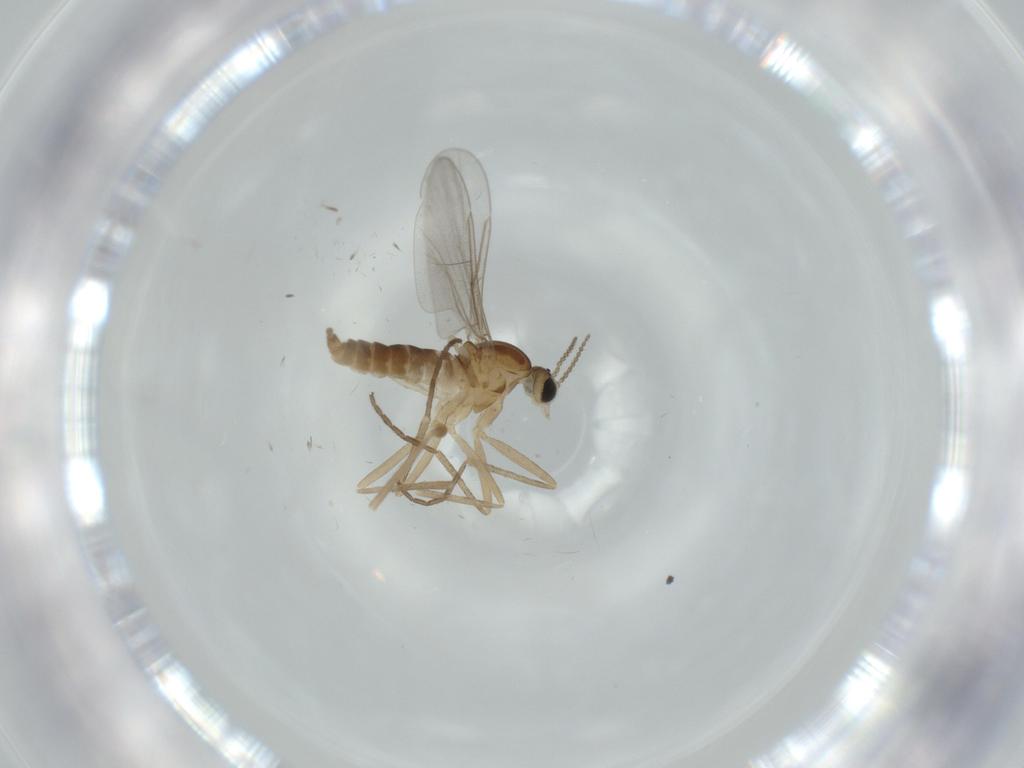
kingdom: Animalia
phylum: Arthropoda
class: Insecta
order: Diptera
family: Cecidomyiidae
